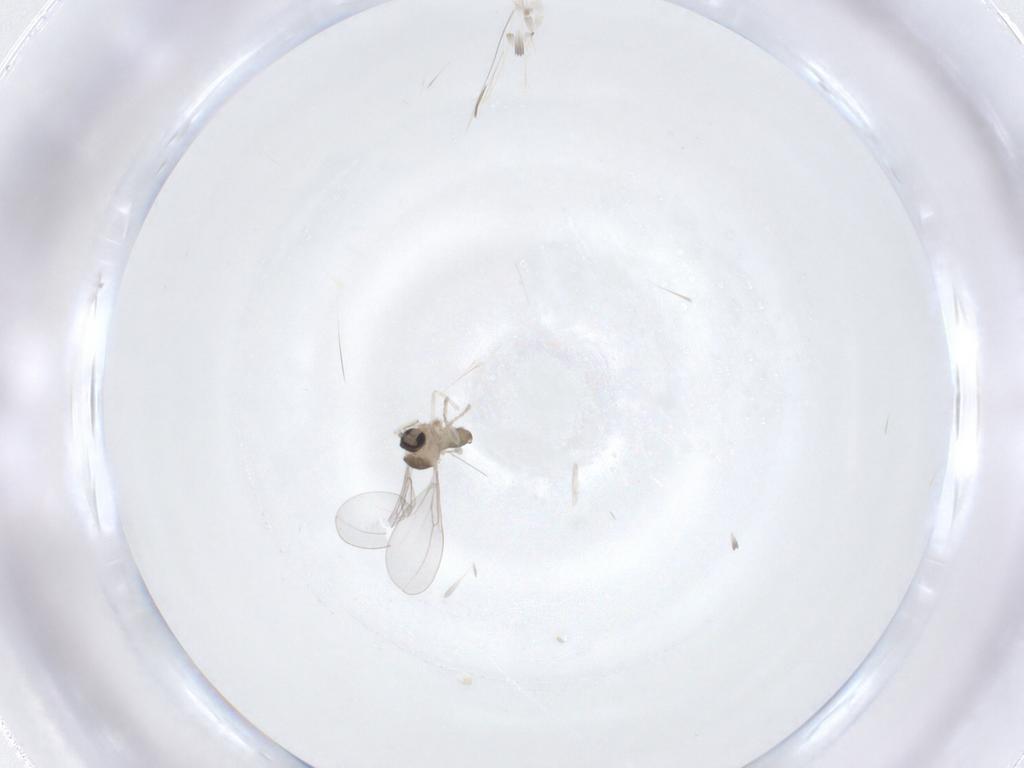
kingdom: Animalia
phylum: Arthropoda
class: Insecta
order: Diptera
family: Cecidomyiidae
